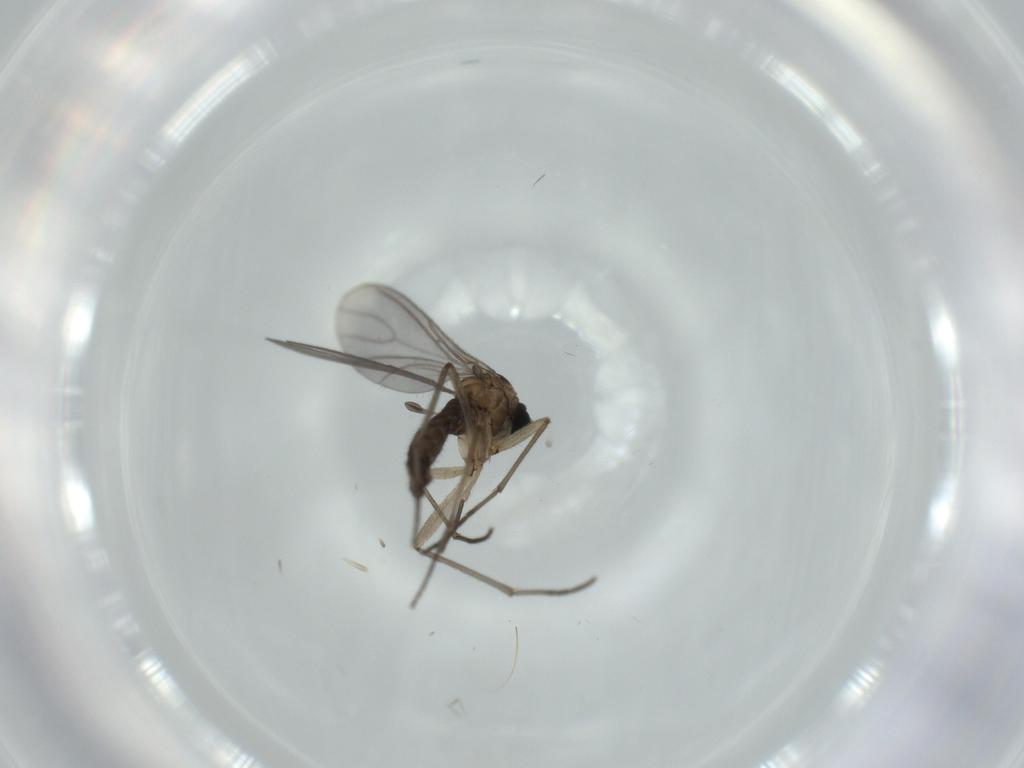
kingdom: Animalia
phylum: Arthropoda
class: Insecta
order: Diptera
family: Sciaridae
